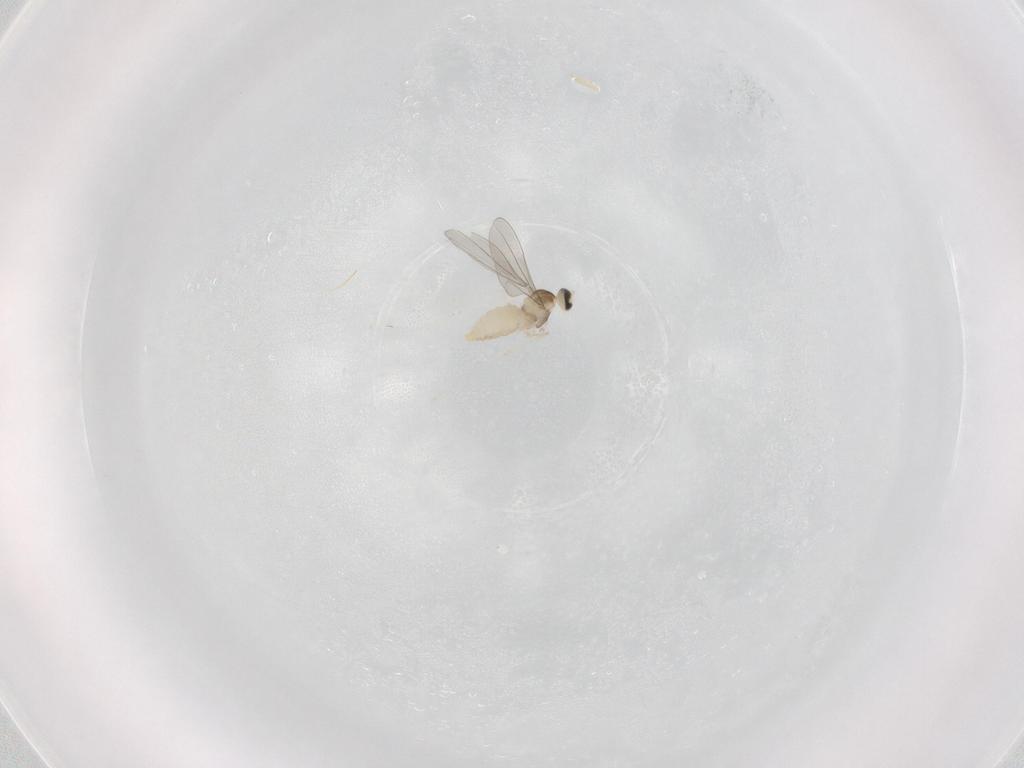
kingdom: Animalia
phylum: Arthropoda
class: Insecta
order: Diptera
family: Cecidomyiidae
